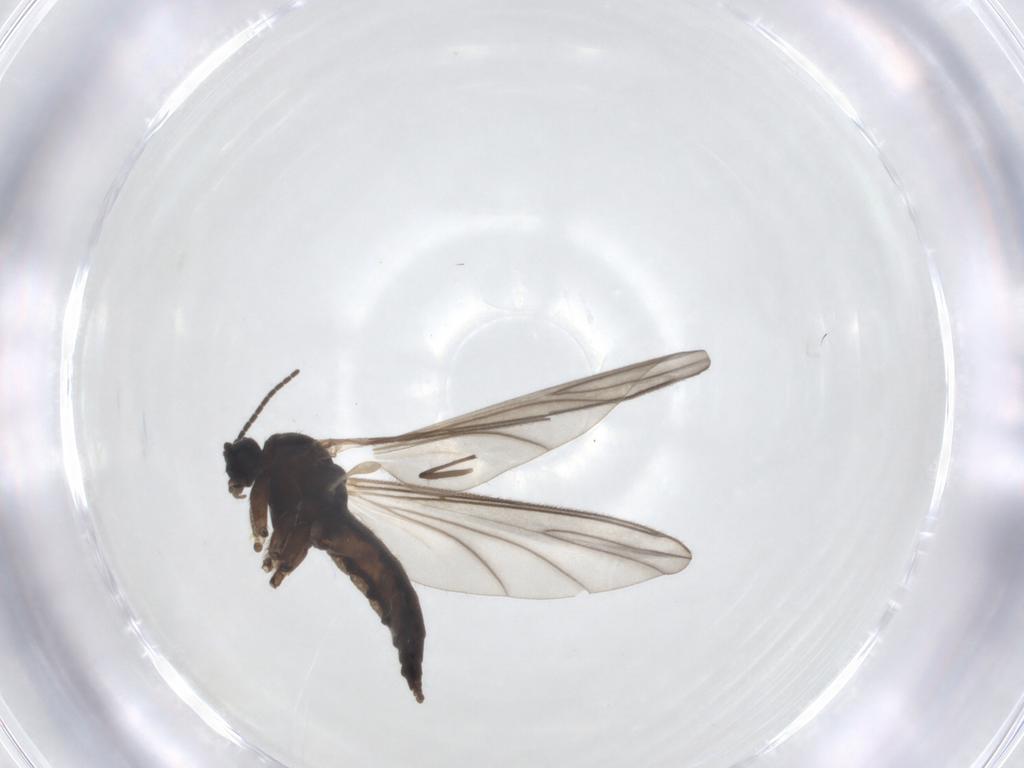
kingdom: Animalia
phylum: Arthropoda
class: Insecta
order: Diptera
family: Sciaridae
